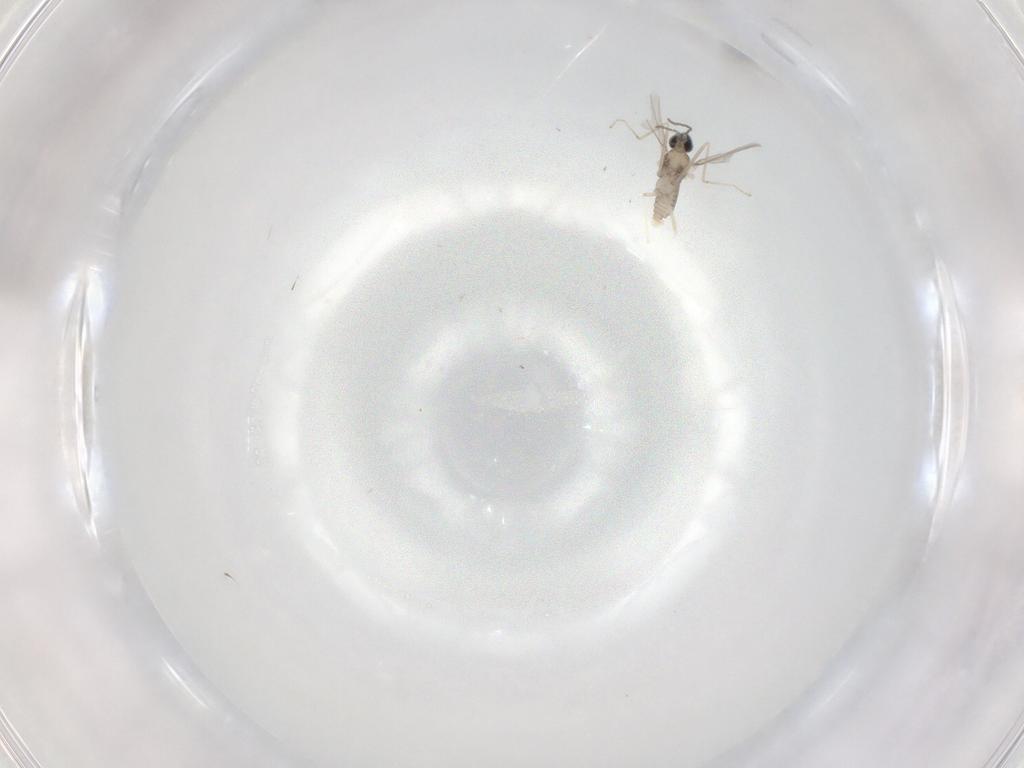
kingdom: Animalia
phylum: Arthropoda
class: Insecta
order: Diptera
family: Cecidomyiidae
